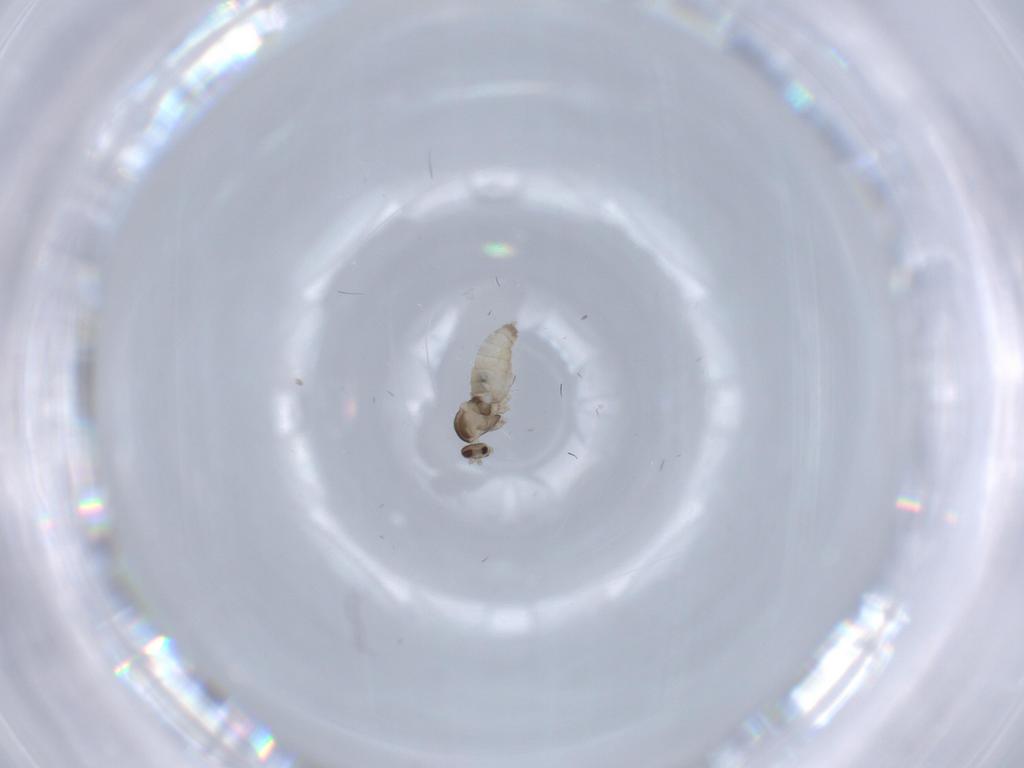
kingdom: Animalia
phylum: Arthropoda
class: Insecta
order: Diptera
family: Cecidomyiidae
